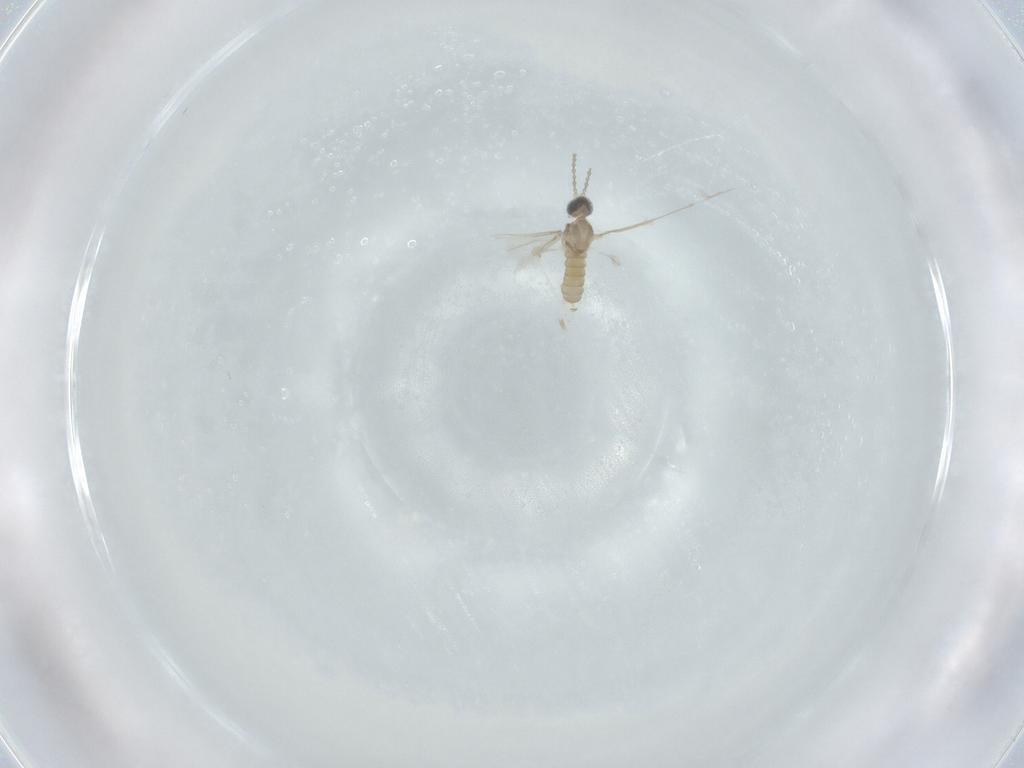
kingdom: Animalia
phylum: Arthropoda
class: Insecta
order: Diptera
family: Cecidomyiidae
